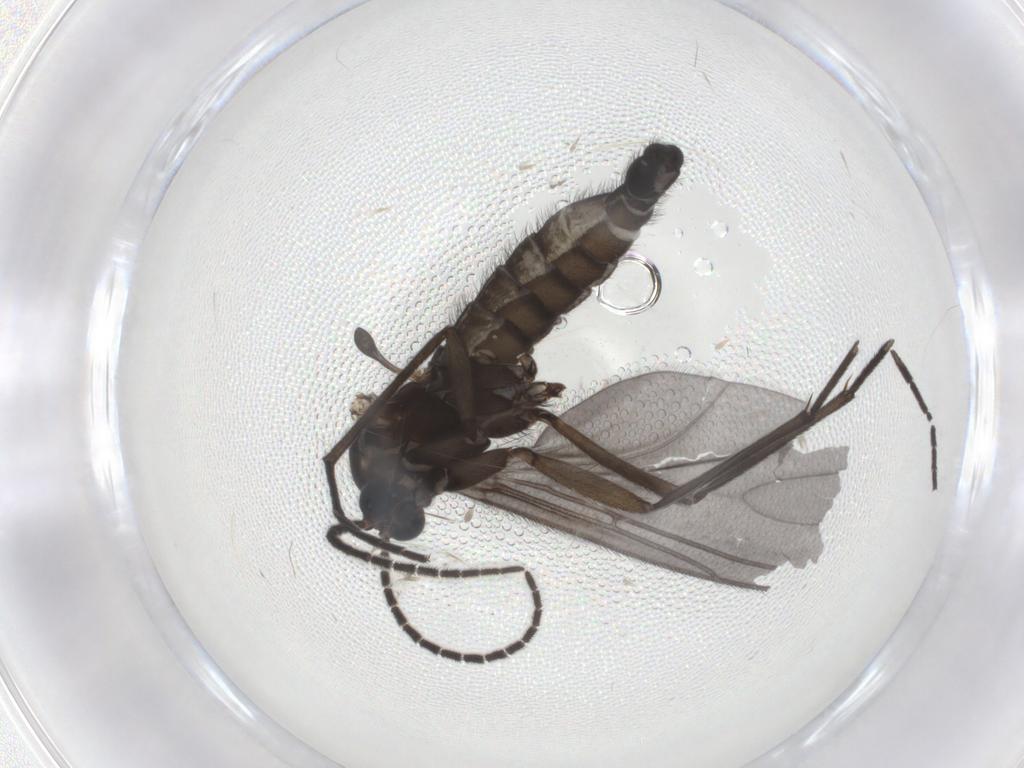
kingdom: Animalia
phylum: Arthropoda
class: Insecta
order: Diptera
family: Sciaridae
